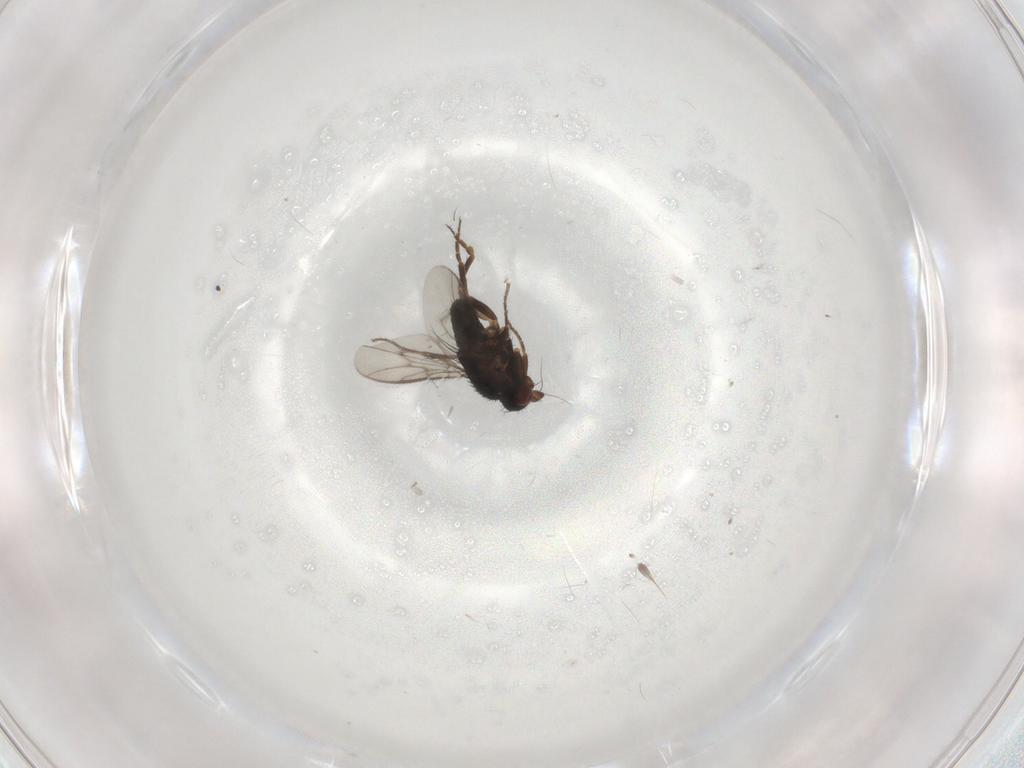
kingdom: Animalia
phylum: Arthropoda
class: Insecta
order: Diptera
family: Sphaeroceridae
